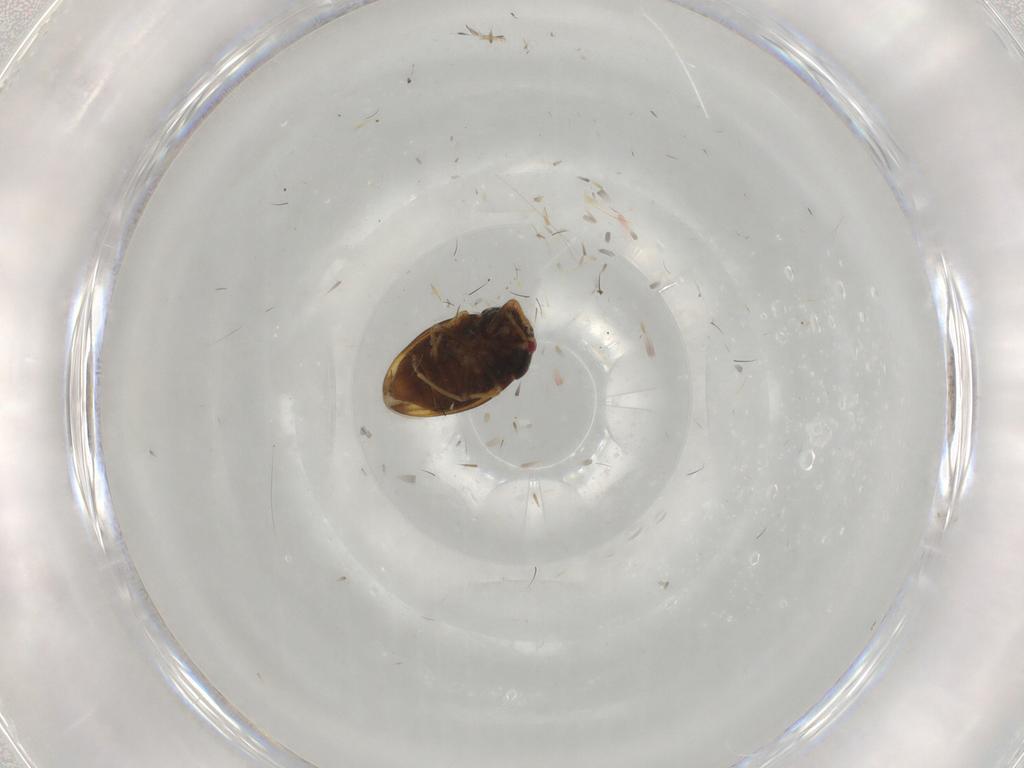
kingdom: Animalia
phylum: Arthropoda
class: Insecta
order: Hemiptera
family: Schizopteridae
